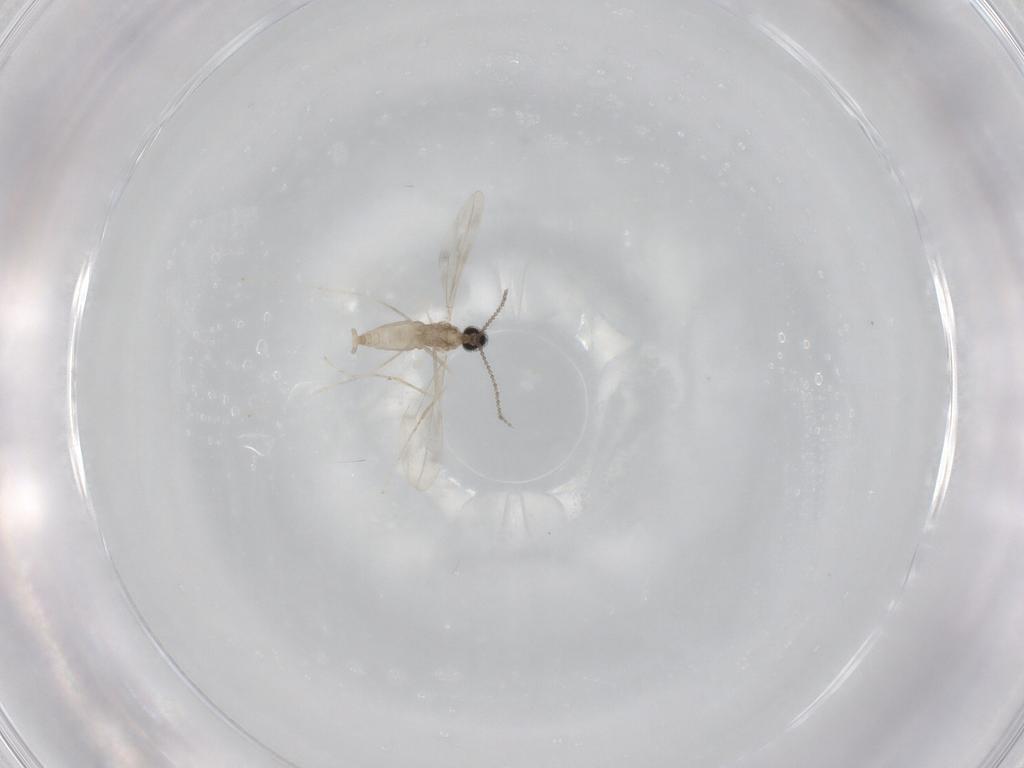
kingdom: Animalia
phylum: Arthropoda
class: Insecta
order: Diptera
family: Cecidomyiidae
